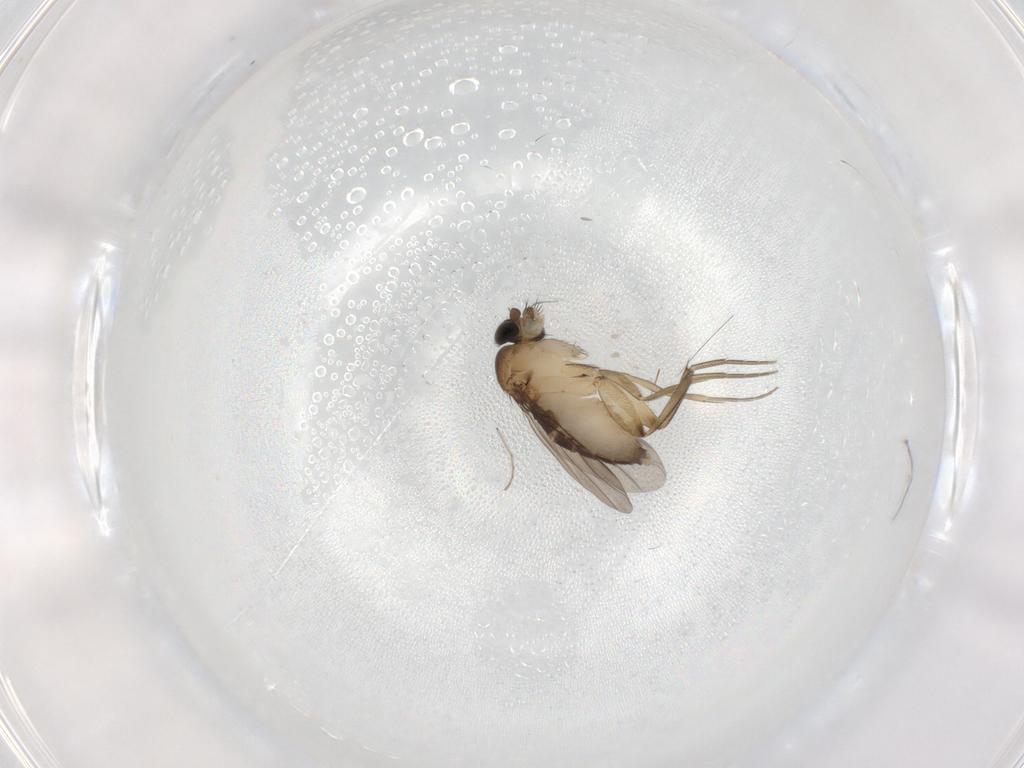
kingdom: Animalia
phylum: Arthropoda
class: Insecta
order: Diptera
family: Phoridae
